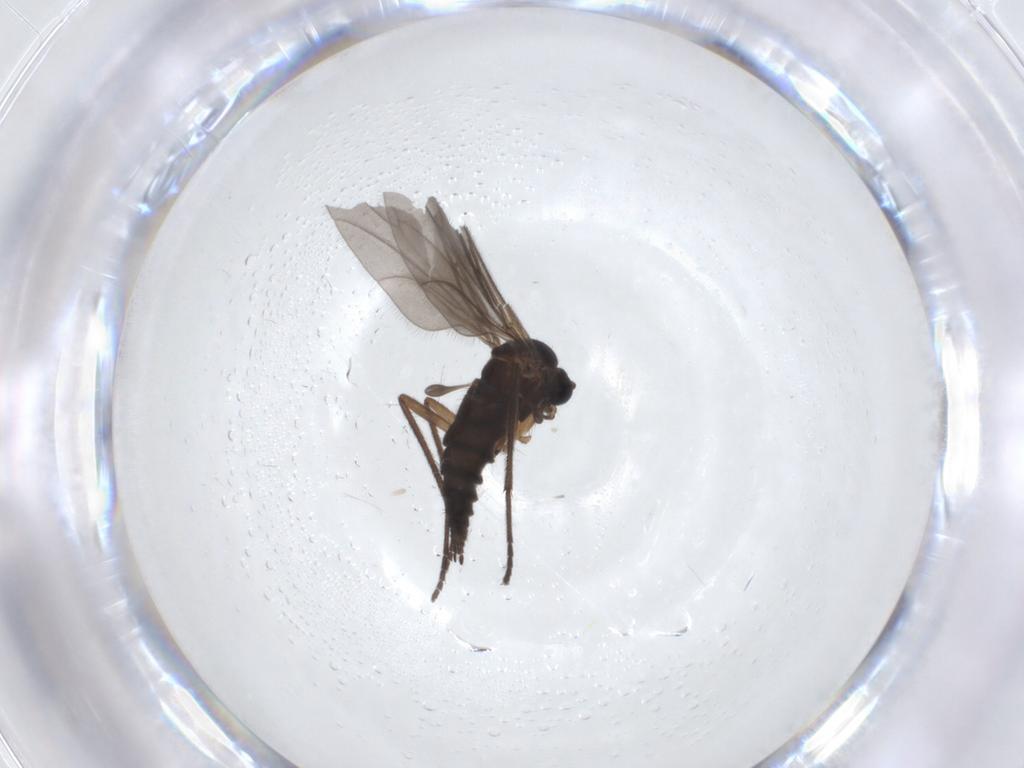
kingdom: Animalia
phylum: Arthropoda
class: Insecta
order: Diptera
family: Sciaridae
